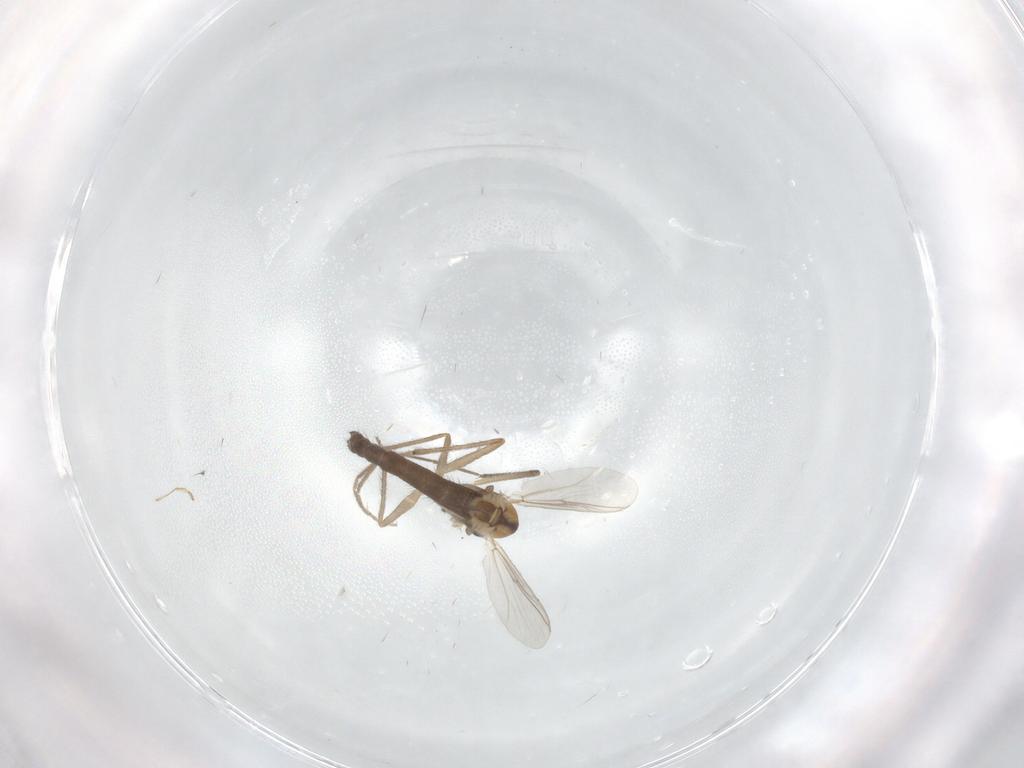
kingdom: Animalia
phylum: Arthropoda
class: Insecta
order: Diptera
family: Chironomidae
